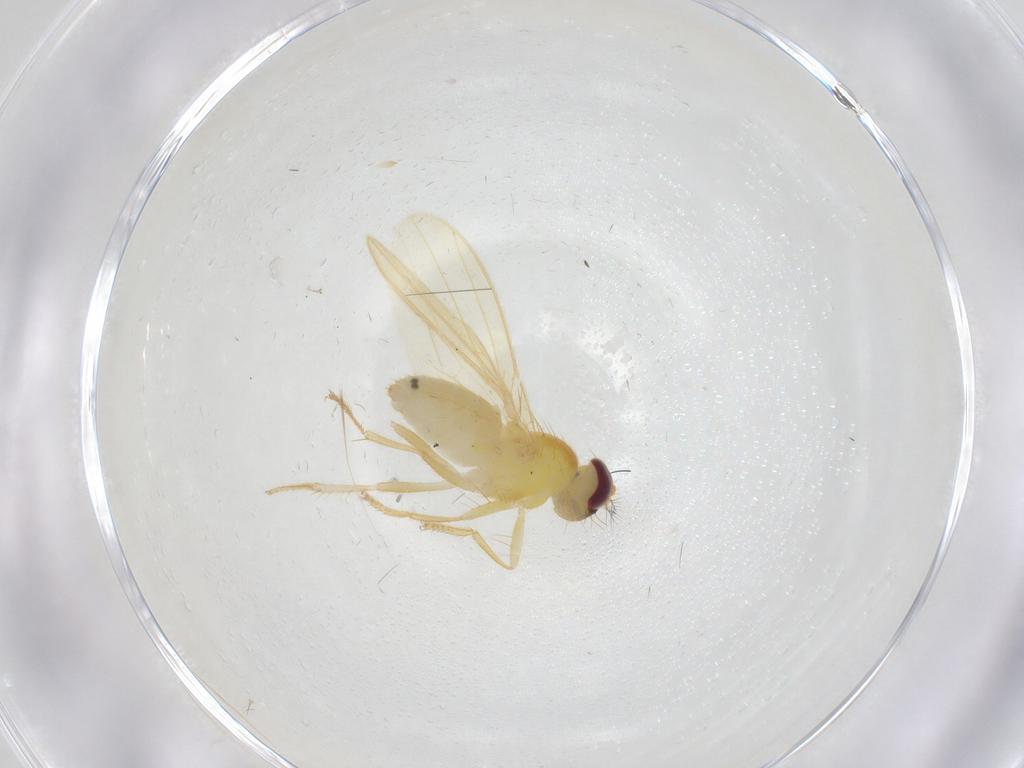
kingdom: Animalia
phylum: Arthropoda
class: Insecta
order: Diptera
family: Periscelididae
